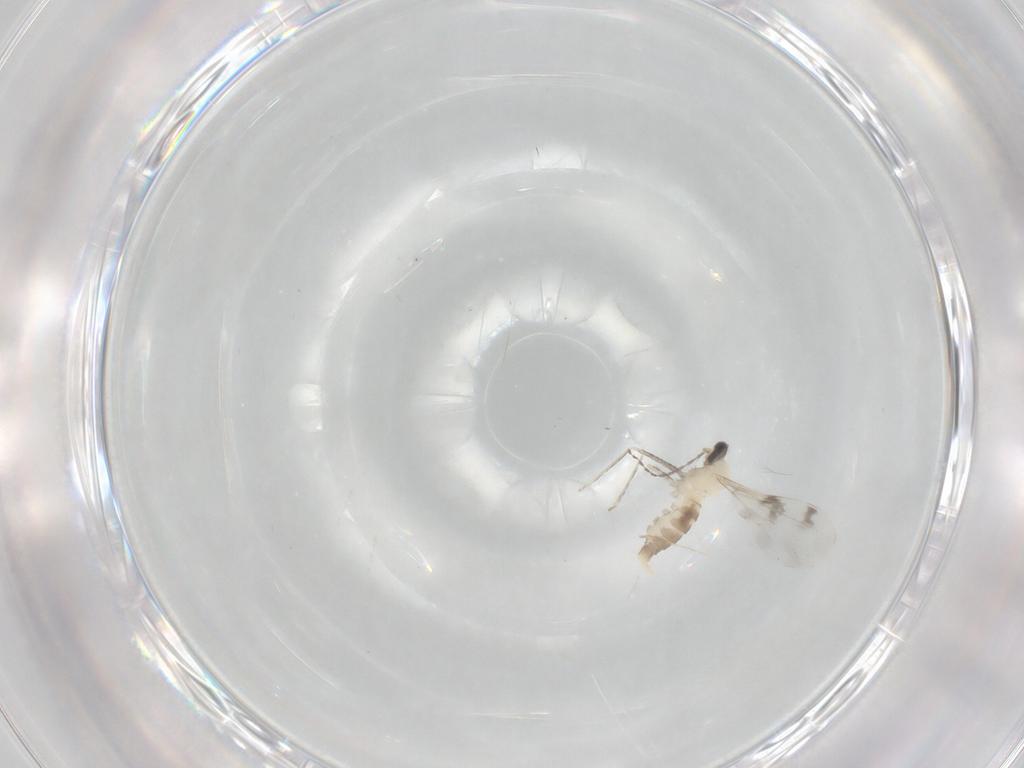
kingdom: Animalia
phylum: Arthropoda
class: Insecta
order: Diptera
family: Cecidomyiidae
